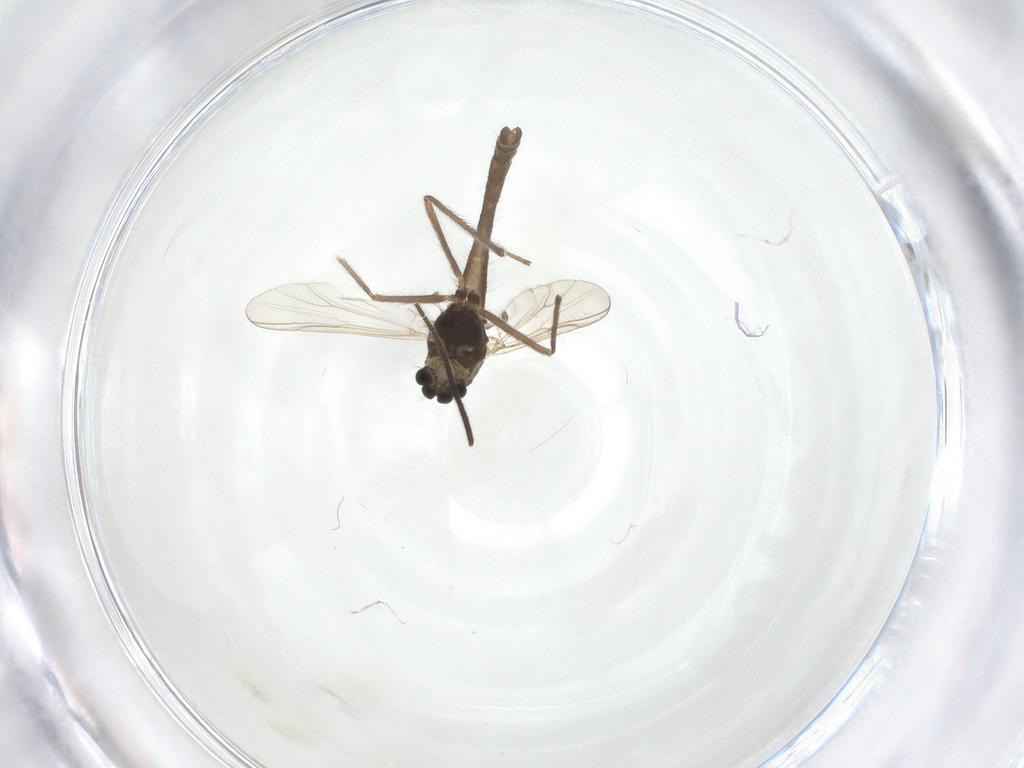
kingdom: Animalia
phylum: Arthropoda
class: Insecta
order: Diptera
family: Chironomidae
